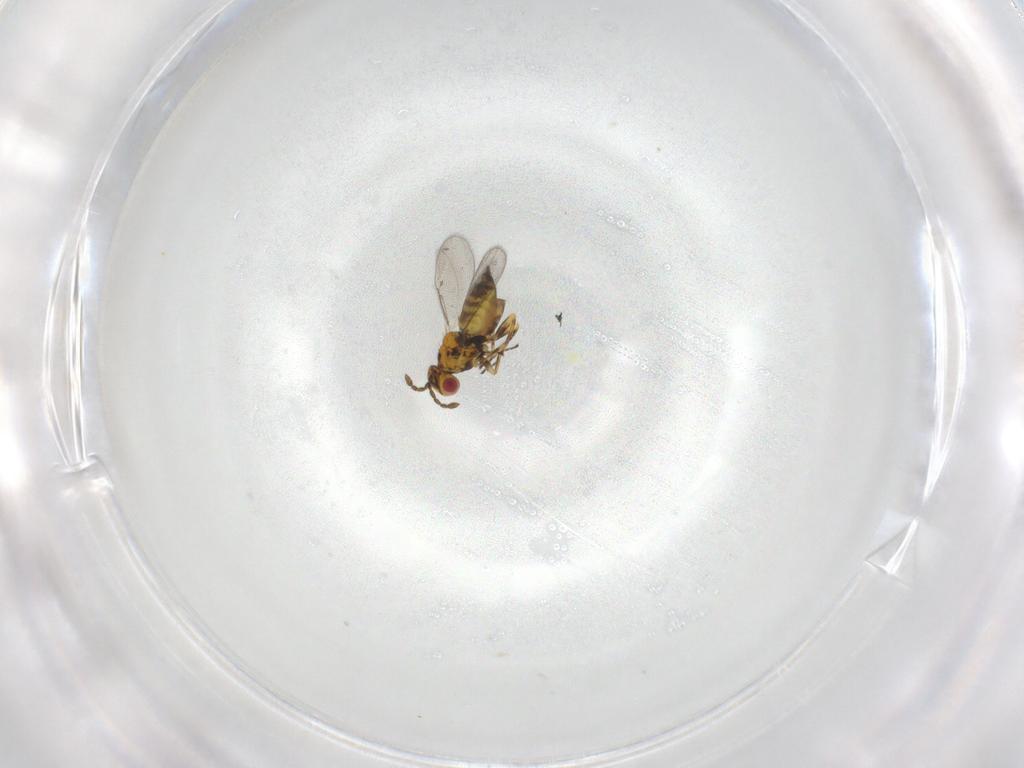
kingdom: Animalia
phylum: Arthropoda
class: Insecta
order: Hymenoptera
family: Eulophidae
